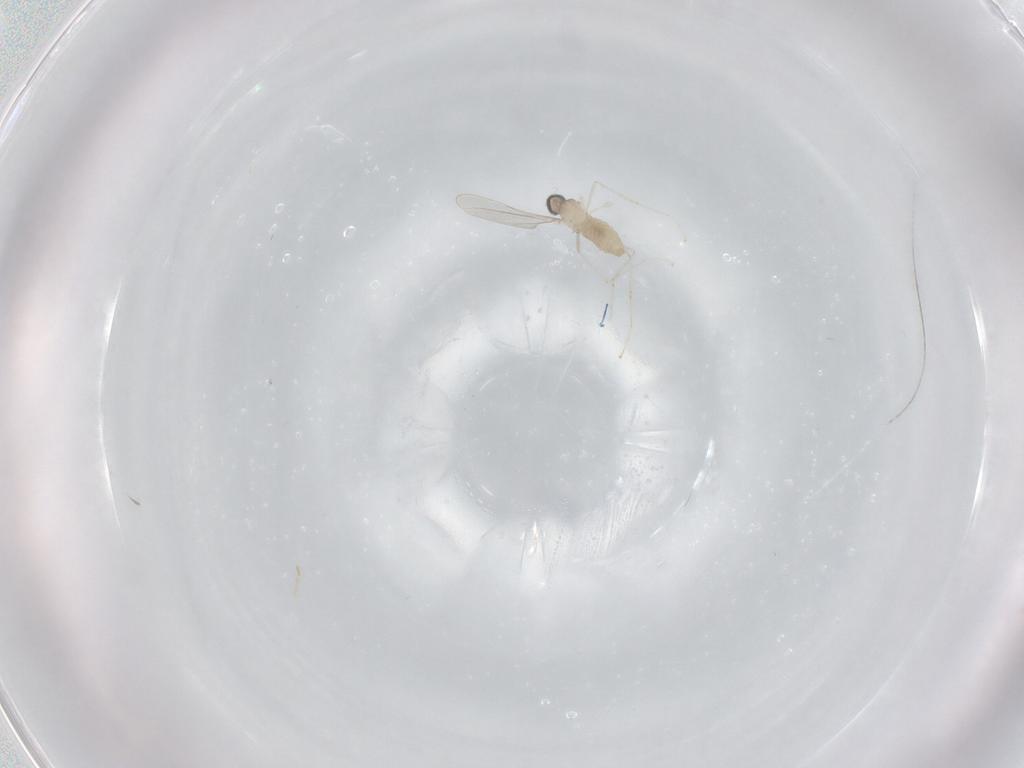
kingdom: Animalia
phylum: Arthropoda
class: Insecta
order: Diptera
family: Cecidomyiidae
